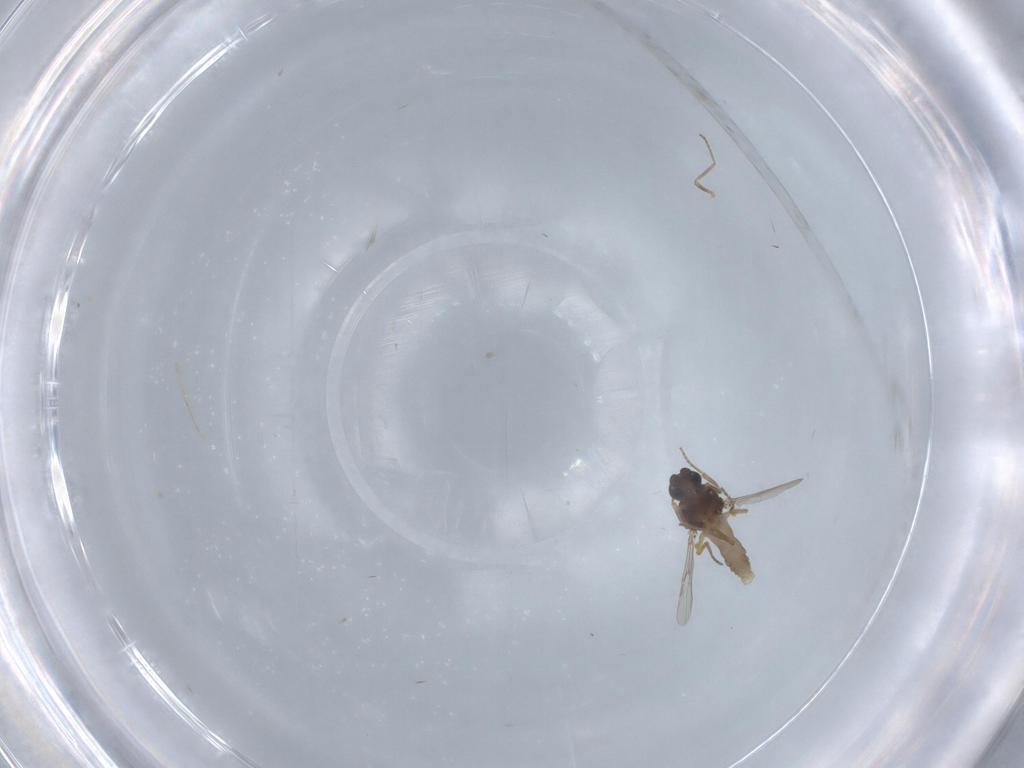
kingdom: Animalia
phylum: Arthropoda
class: Insecta
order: Diptera
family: Ceratopogonidae
